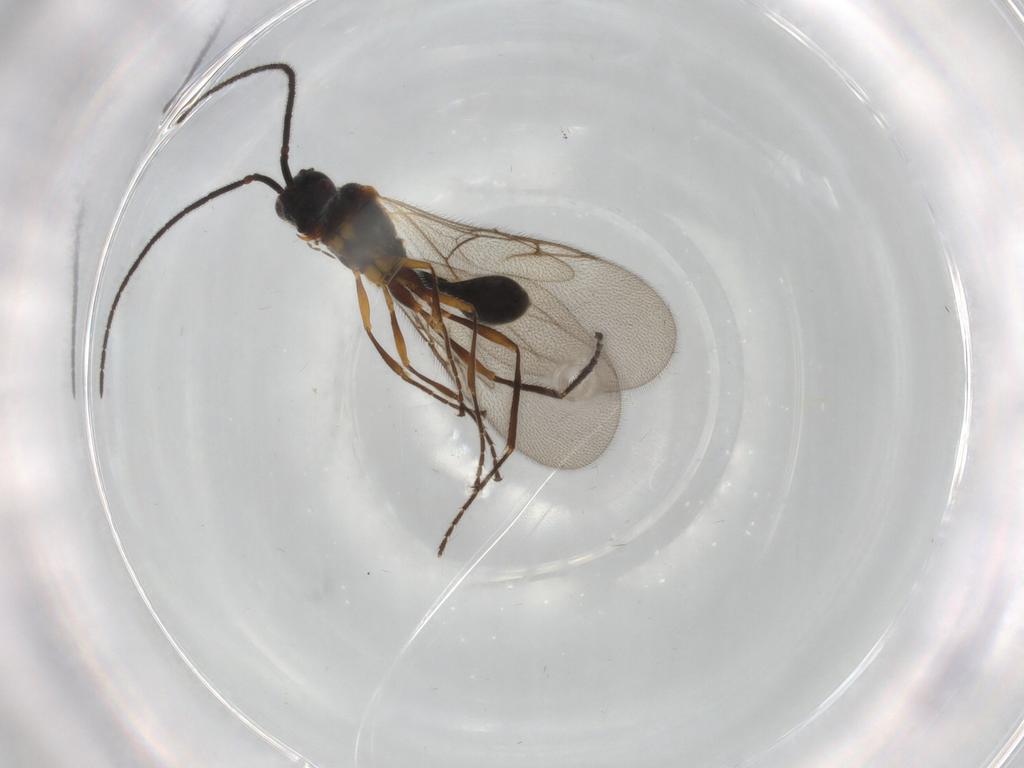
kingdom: Animalia
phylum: Arthropoda
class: Insecta
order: Hymenoptera
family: Diapriidae
